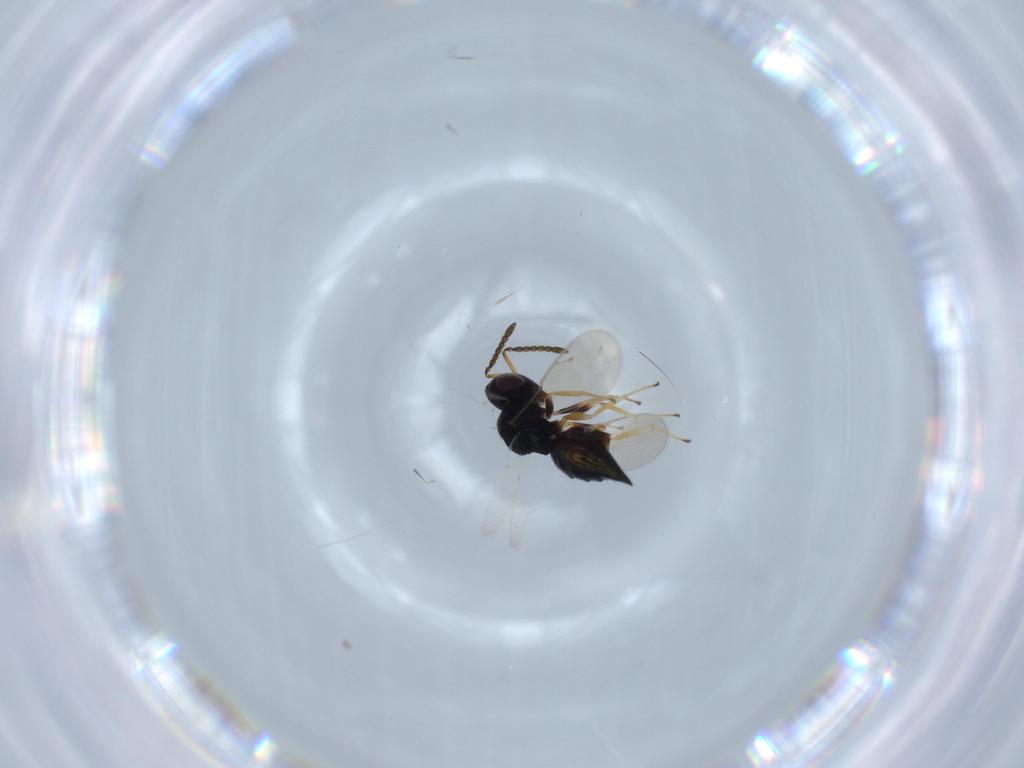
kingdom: Animalia
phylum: Arthropoda
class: Insecta
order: Hymenoptera
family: Pteromalidae
